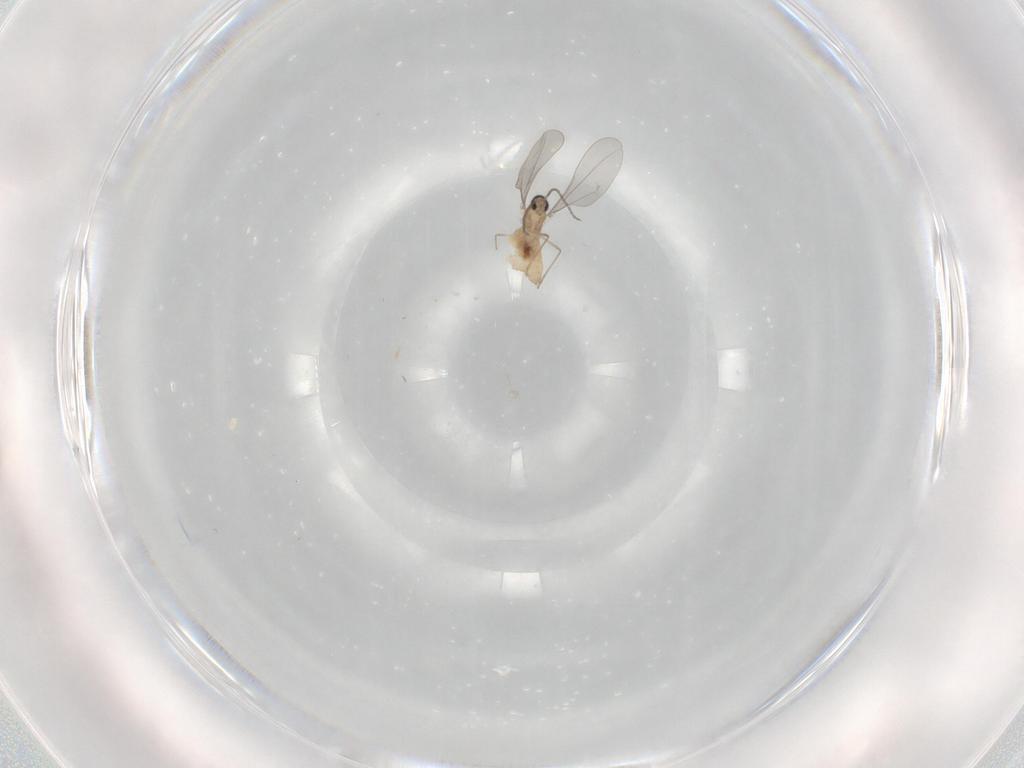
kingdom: Animalia
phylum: Arthropoda
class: Insecta
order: Diptera
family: Cecidomyiidae
